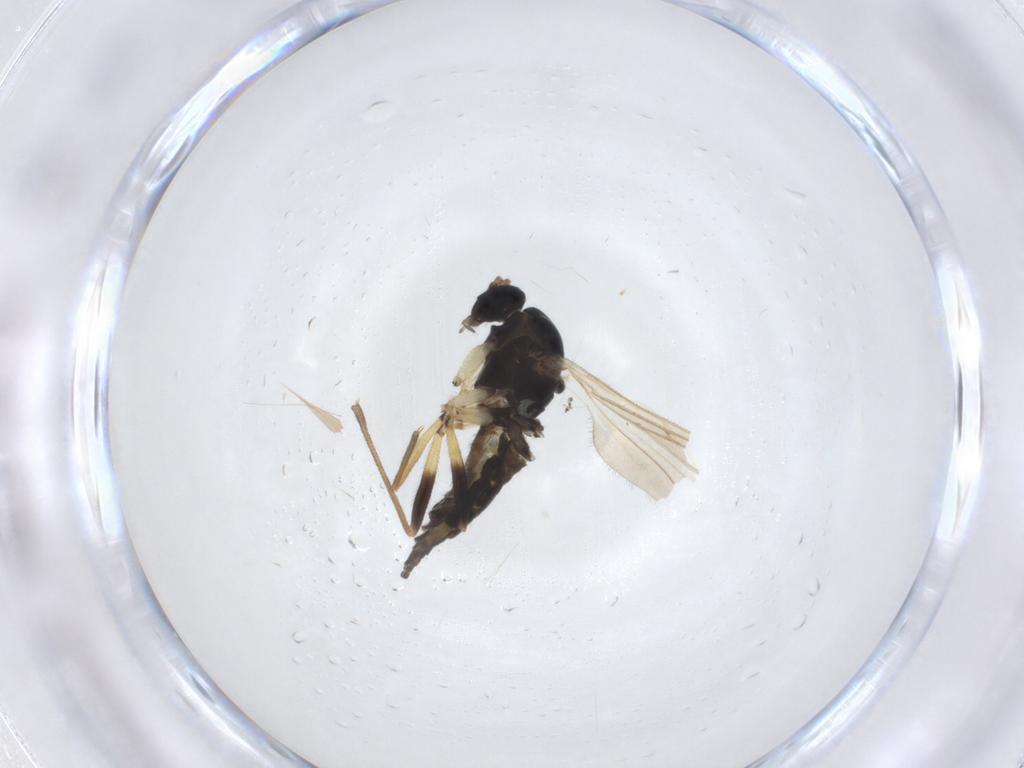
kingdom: Animalia
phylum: Arthropoda
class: Insecta
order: Diptera
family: Sciaridae
